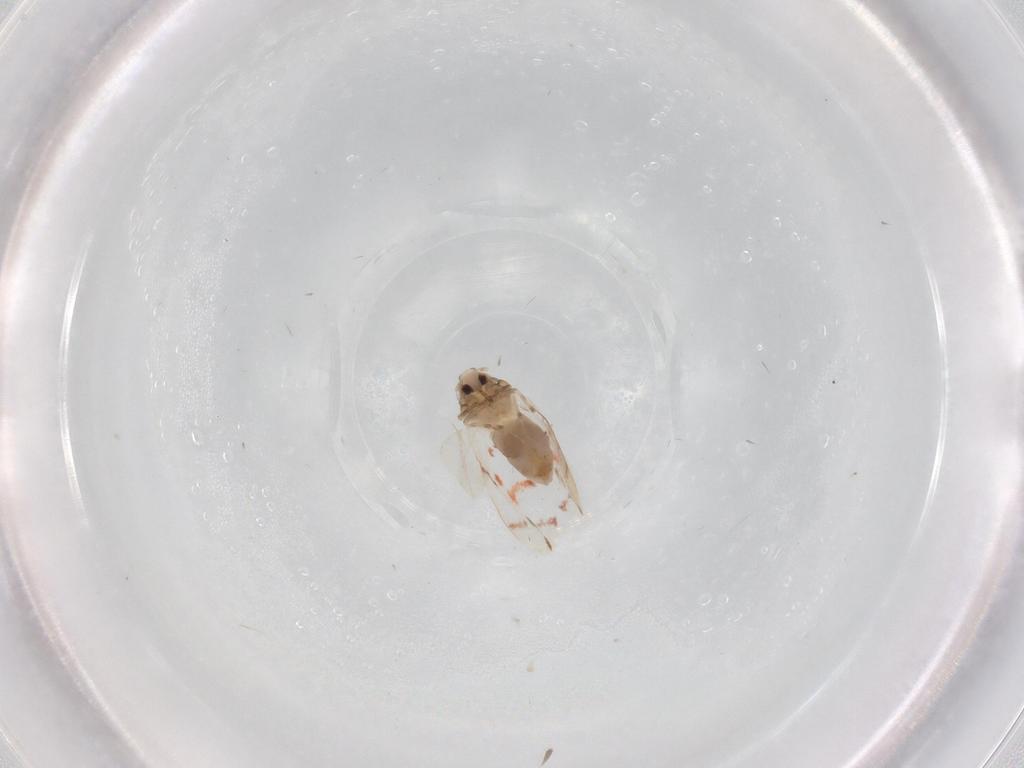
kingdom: Animalia
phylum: Arthropoda
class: Insecta
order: Hemiptera
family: Aleyrodidae
